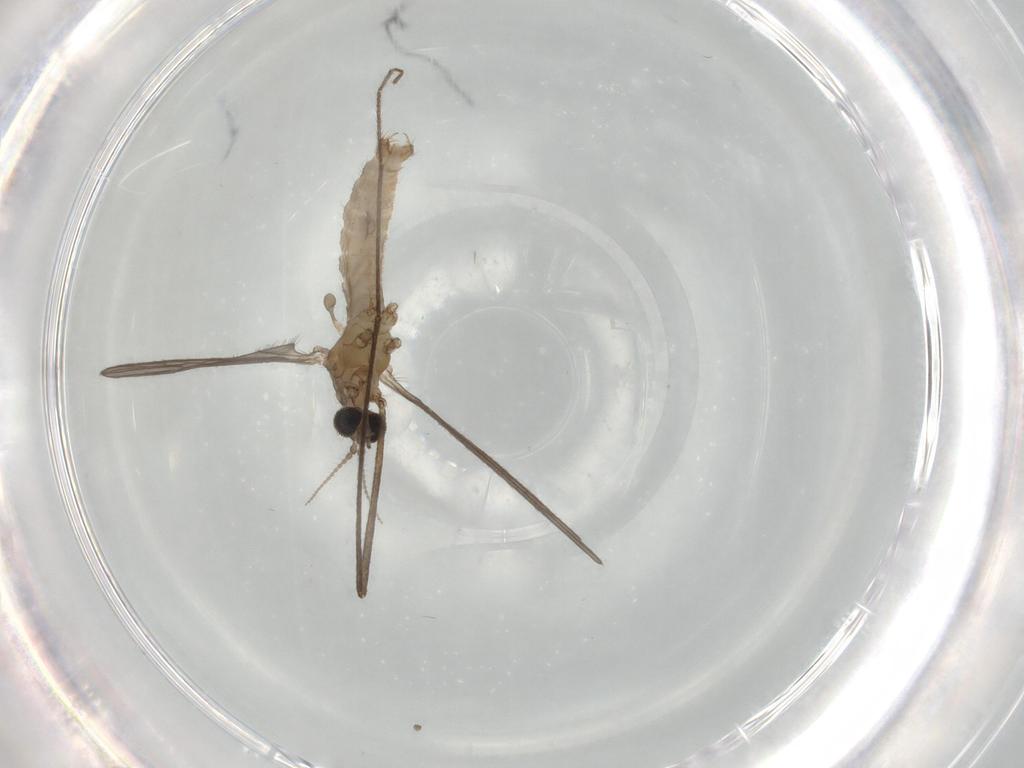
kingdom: Animalia
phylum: Arthropoda
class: Insecta
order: Diptera
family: Cecidomyiidae
